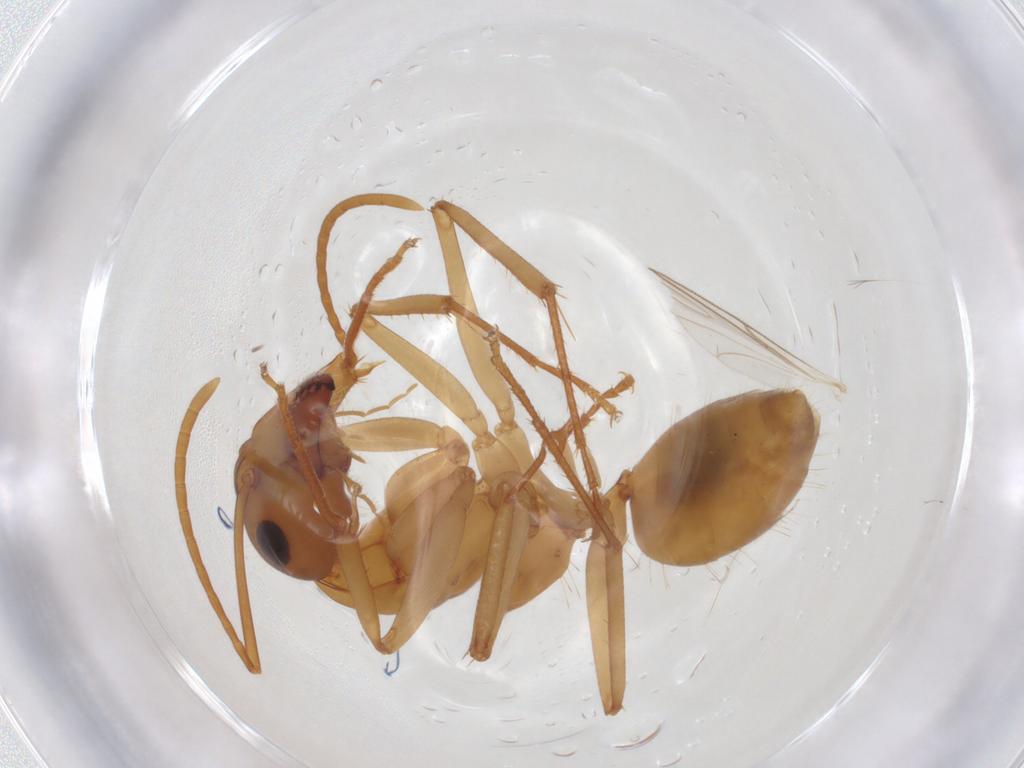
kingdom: Animalia
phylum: Arthropoda
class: Insecta
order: Hymenoptera
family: Formicidae
